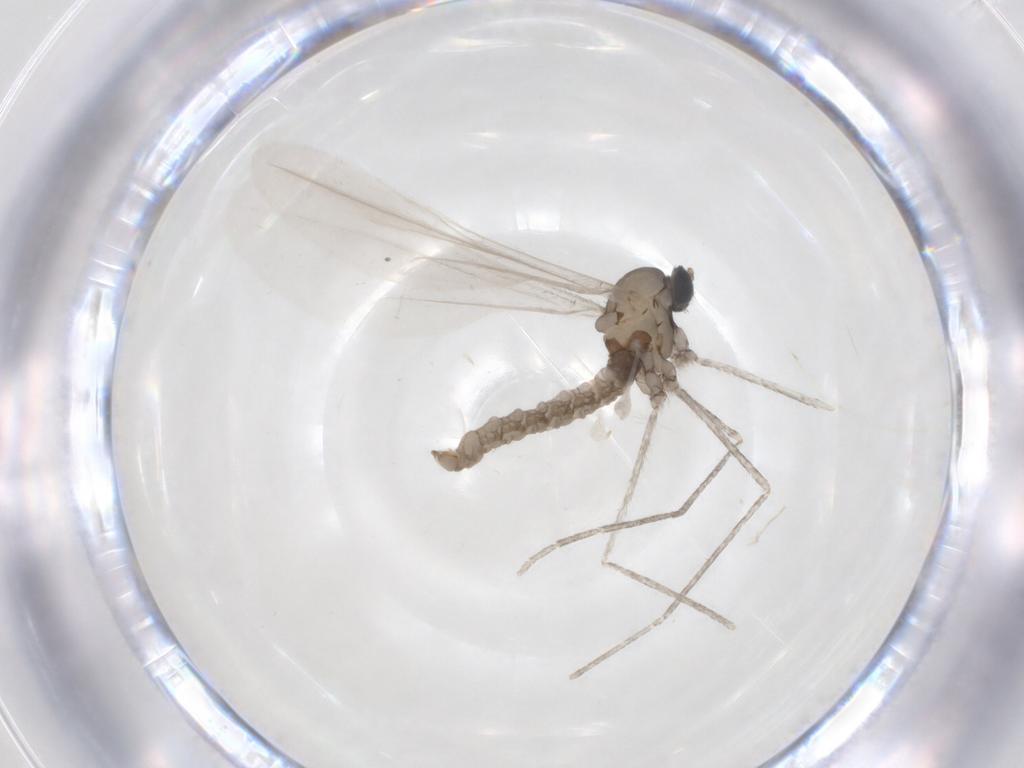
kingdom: Animalia
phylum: Arthropoda
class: Insecta
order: Diptera
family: Cecidomyiidae
